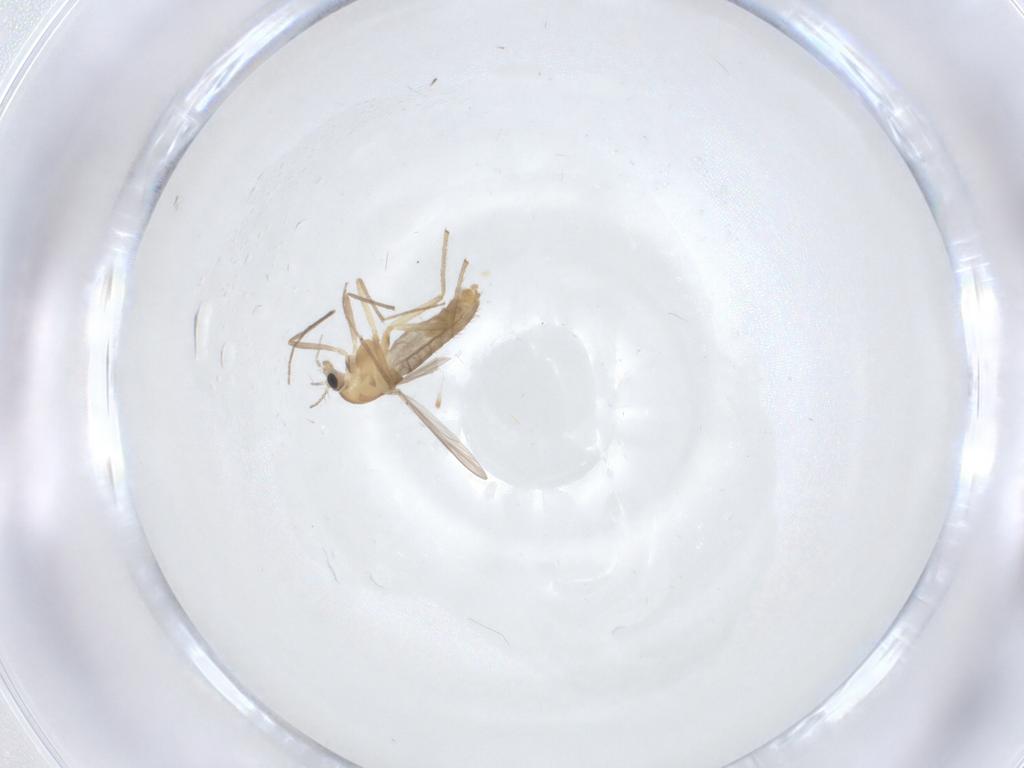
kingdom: Animalia
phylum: Arthropoda
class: Insecta
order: Diptera
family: Chironomidae
